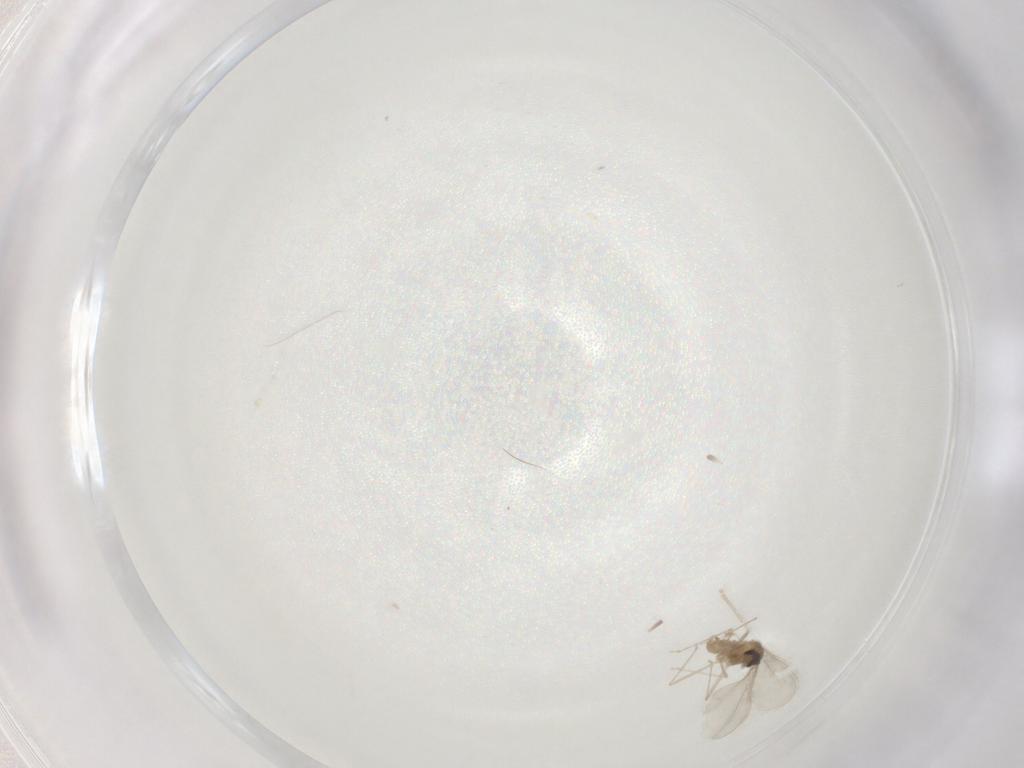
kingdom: Animalia
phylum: Arthropoda
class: Insecta
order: Diptera
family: Cecidomyiidae
